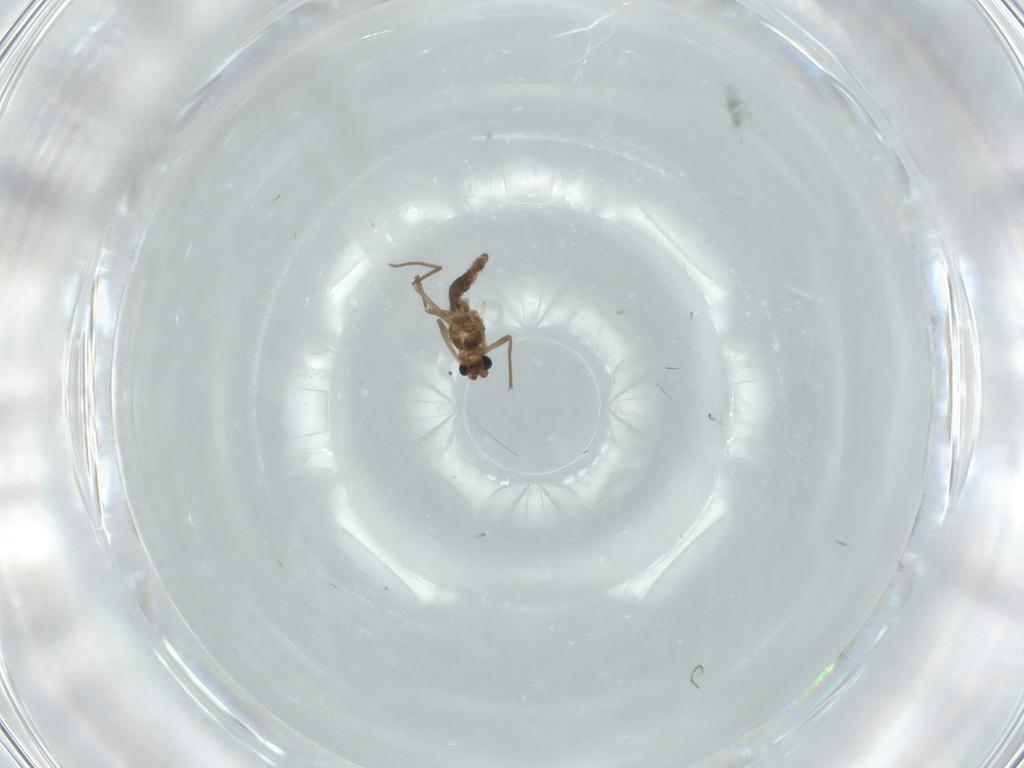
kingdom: Animalia
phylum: Arthropoda
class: Insecta
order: Diptera
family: Chironomidae
